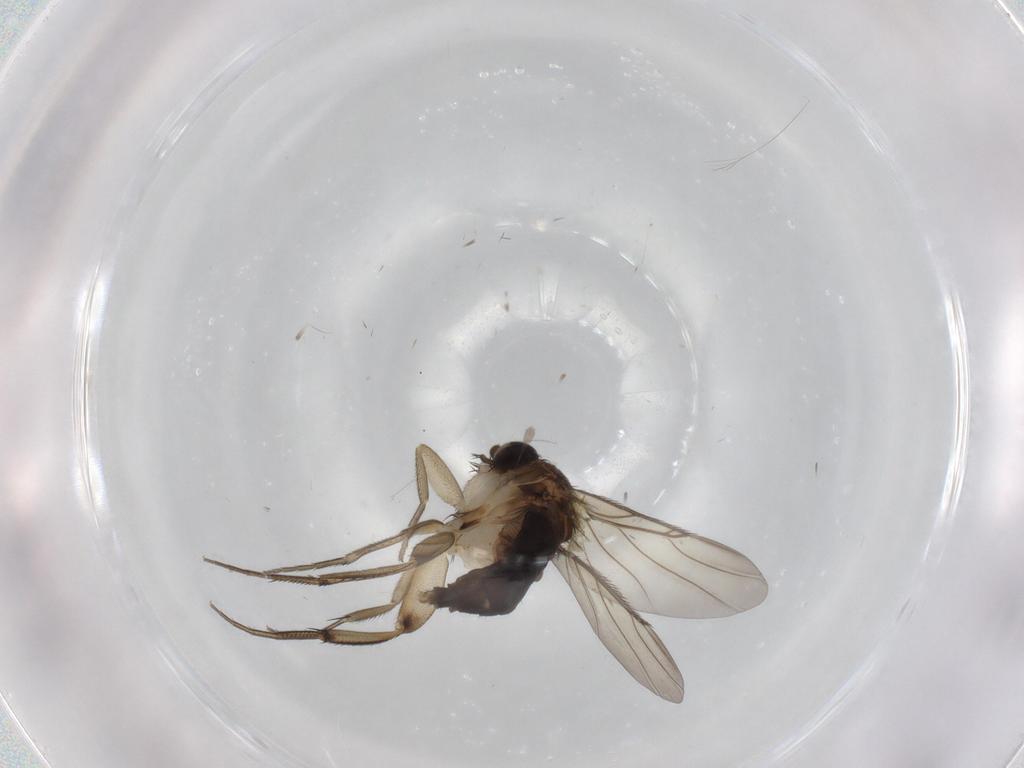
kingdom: Animalia
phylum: Arthropoda
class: Insecta
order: Diptera
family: Phoridae
